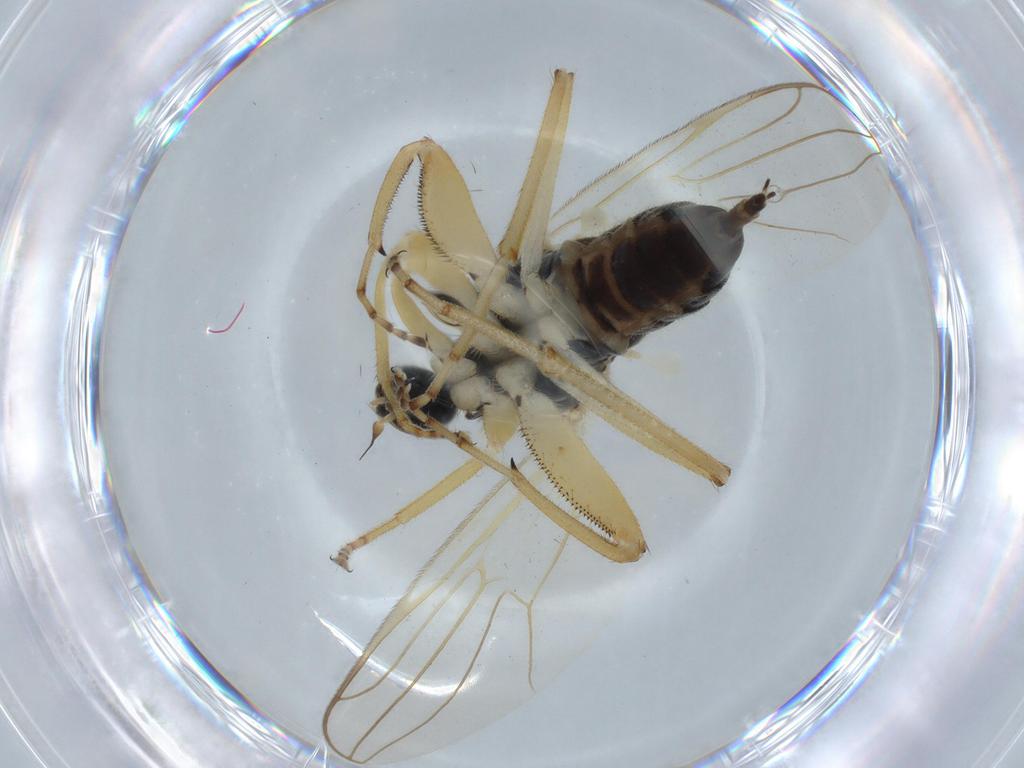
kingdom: Animalia
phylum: Arthropoda
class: Insecta
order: Diptera
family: Hybotidae
